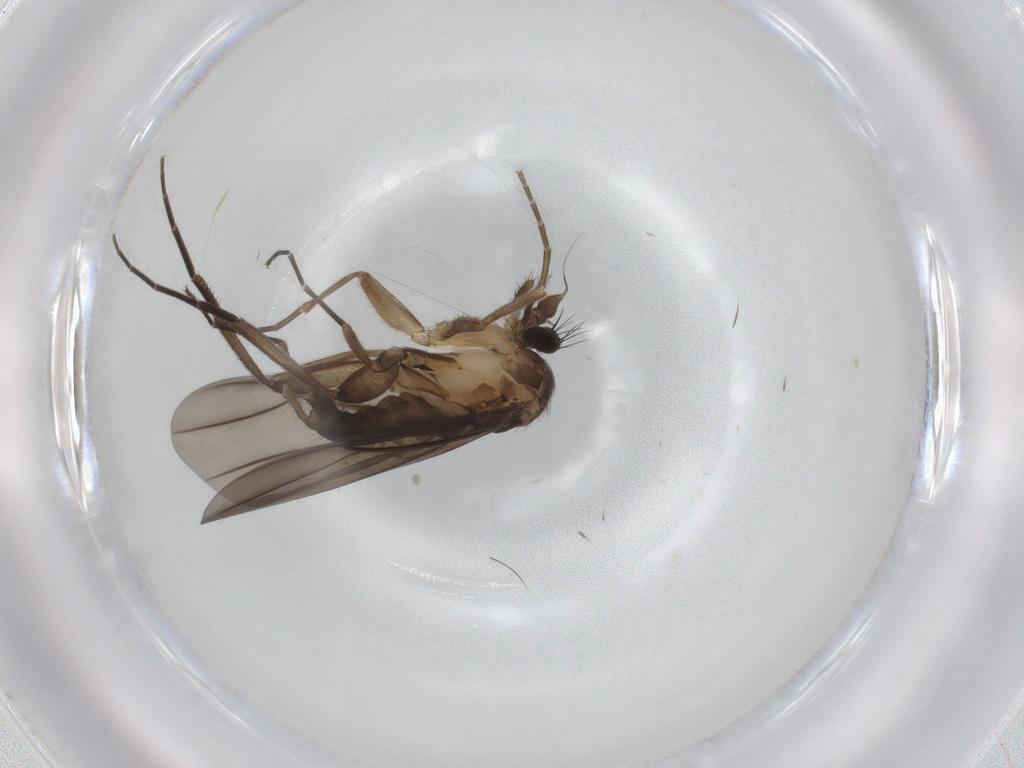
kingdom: Animalia
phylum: Arthropoda
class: Insecta
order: Diptera
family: Phoridae
